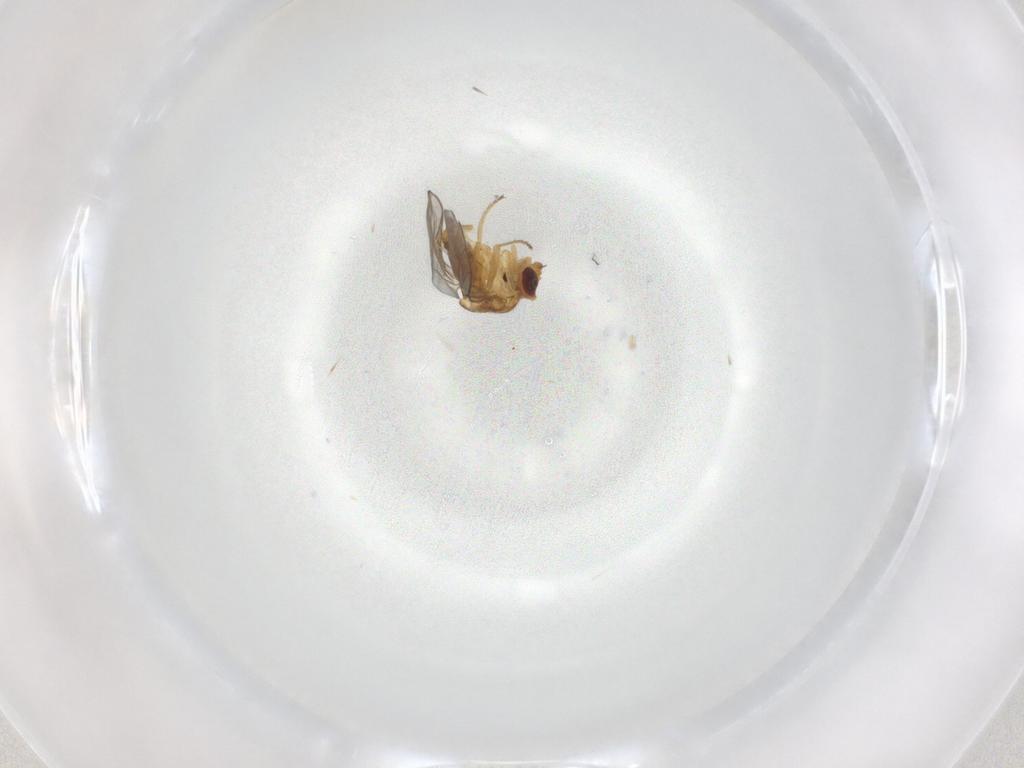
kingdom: Animalia
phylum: Arthropoda
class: Insecta
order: Diptera
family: Chloropidae
